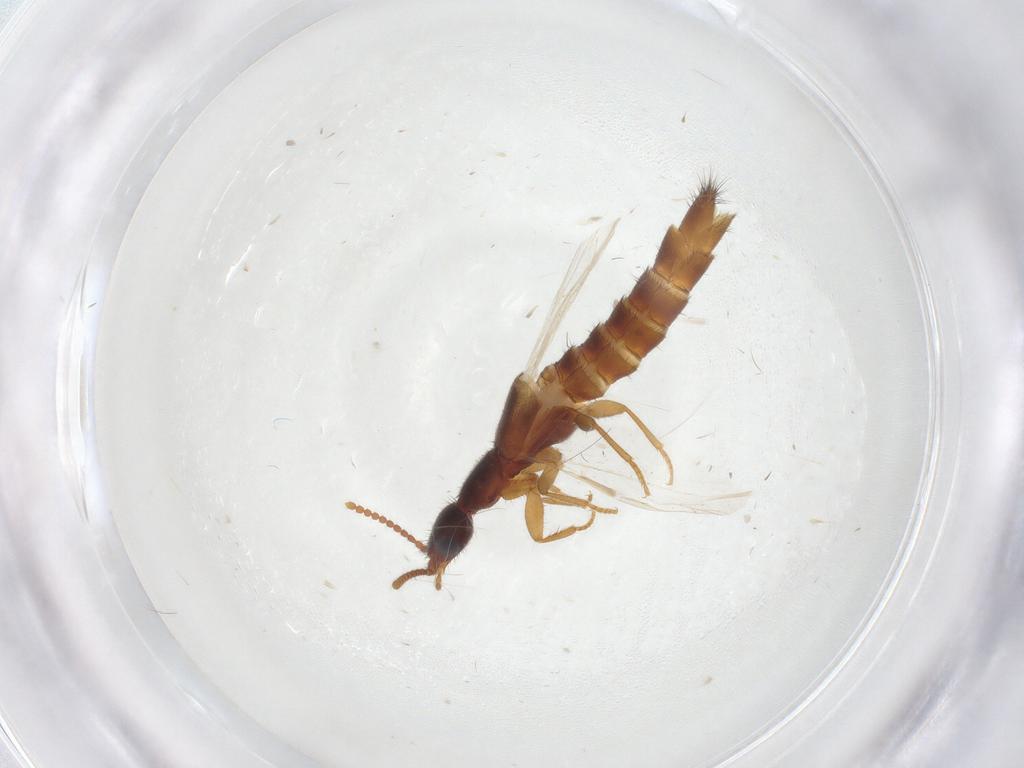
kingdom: Animalia
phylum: Arthropoda
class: Insecta
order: Coleoptera
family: Staphylinidae
